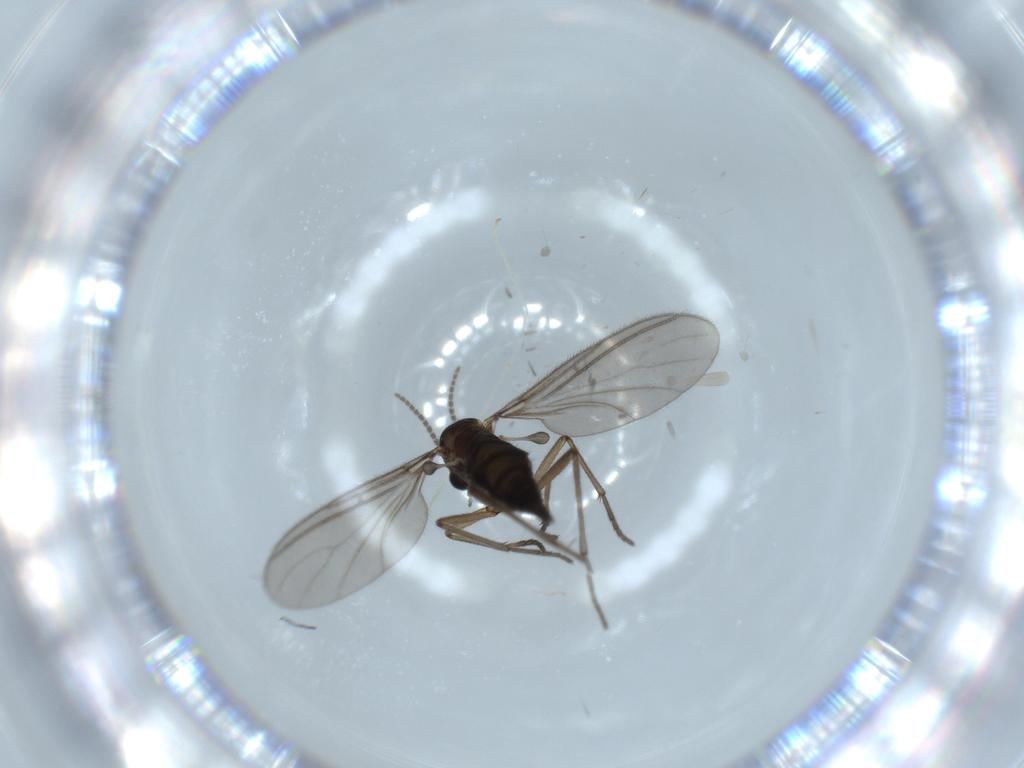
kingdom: Animalia
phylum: Arthropoda
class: Insecta
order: Diptera
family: Sciaridae
